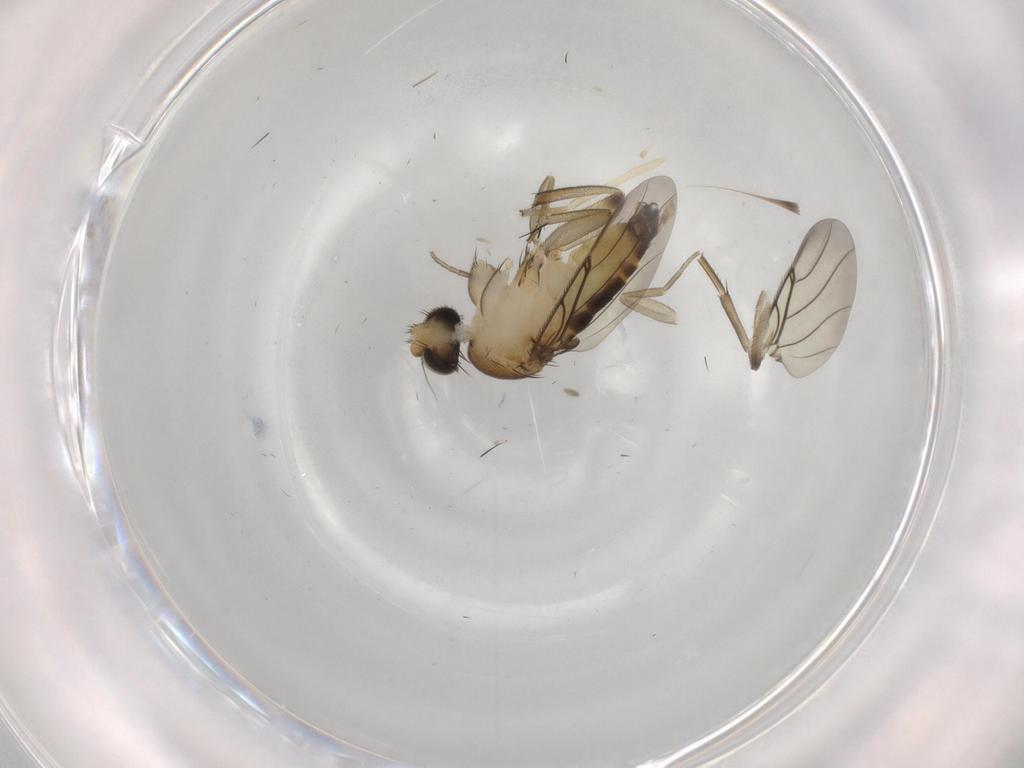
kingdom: Animalia
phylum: Arthropoda
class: Insecta
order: Diptera
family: Phoridae
